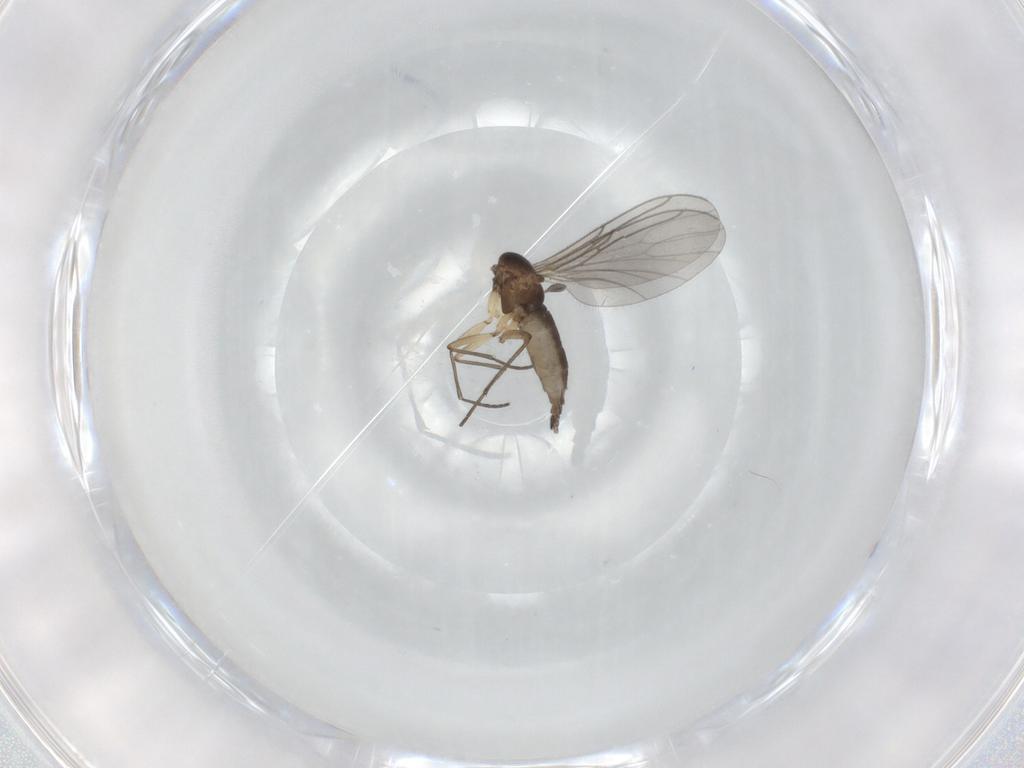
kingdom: Animalia
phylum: Arthropoda
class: Insecta
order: Diptera
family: Sciaridae
